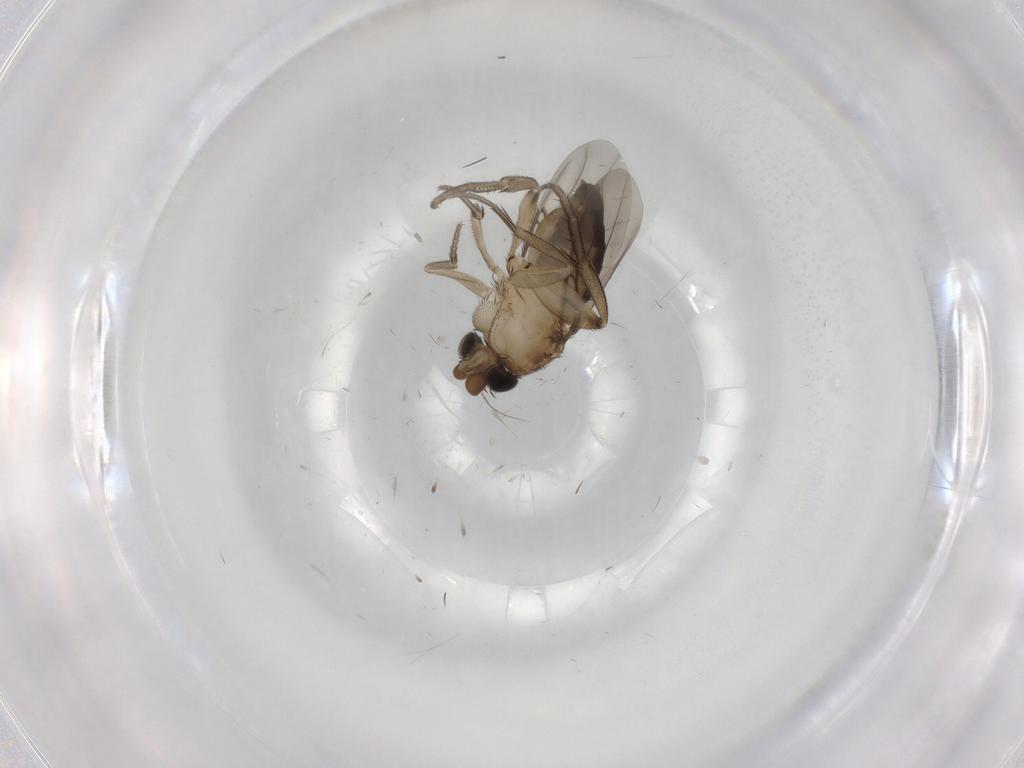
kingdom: Animalia
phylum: Arthropoda
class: Insecta
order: Diptera
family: Phoridae
